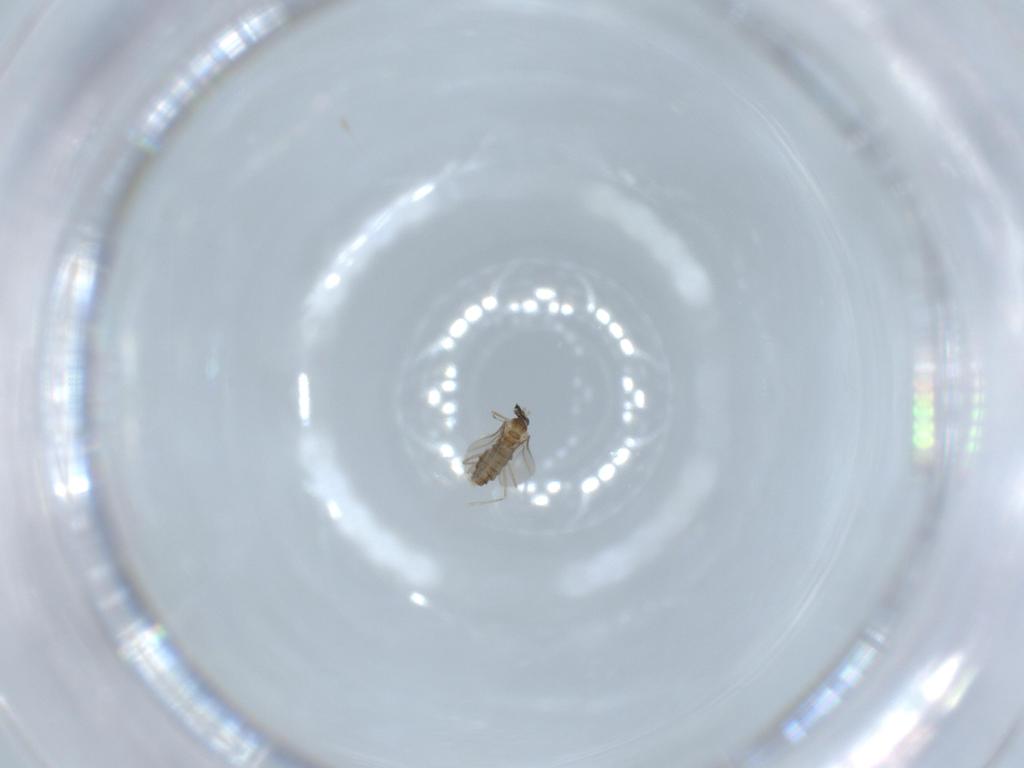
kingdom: Animalia
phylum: Arthropoda
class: Insecta
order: Diptera
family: Cecidomyiidae
